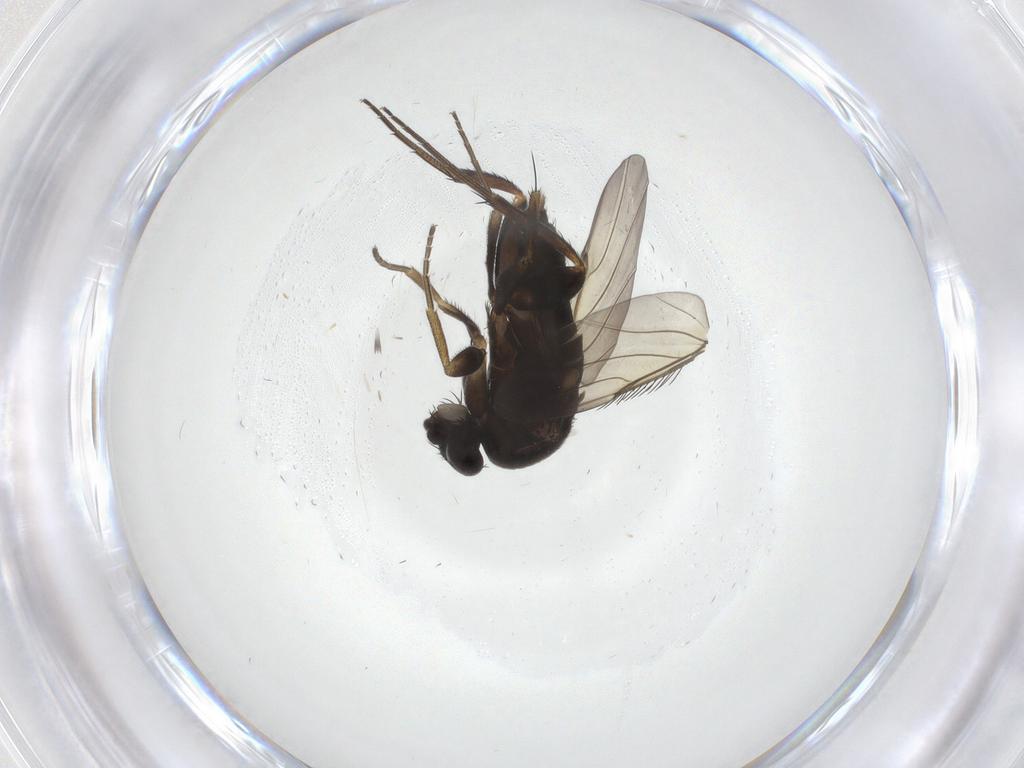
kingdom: Animalia
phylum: Arthropoda
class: Insecta
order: Diptera
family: Phoridae
